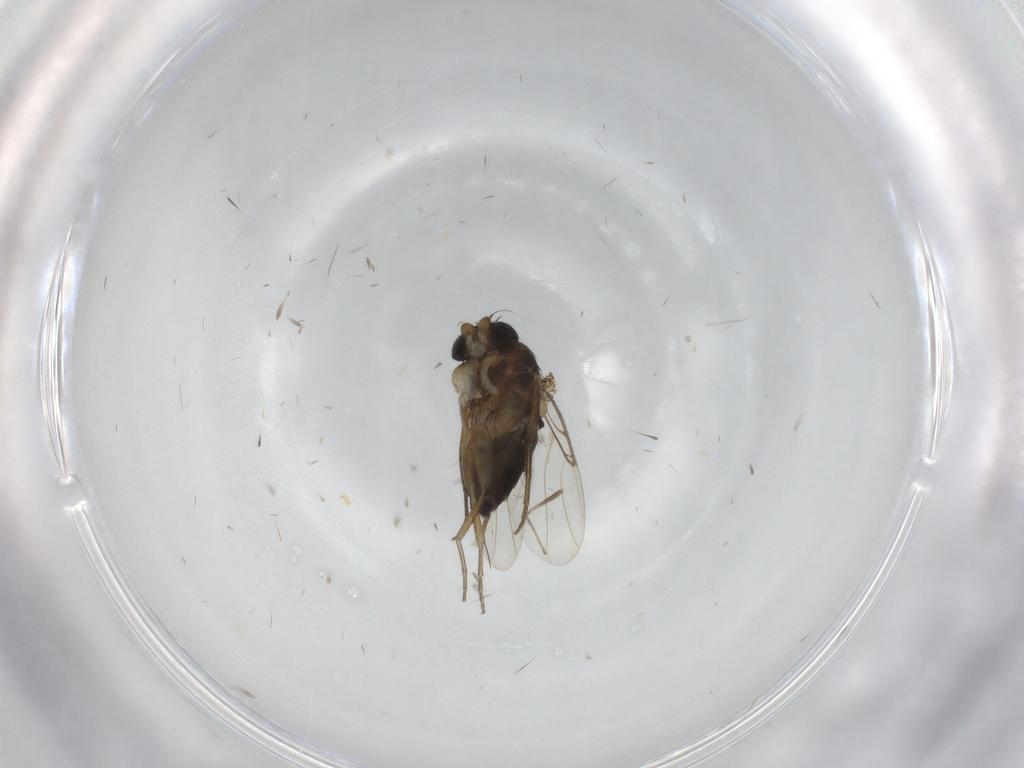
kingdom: Animalia
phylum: Arthropoda
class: Insecta
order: Diptera
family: Phoridae
